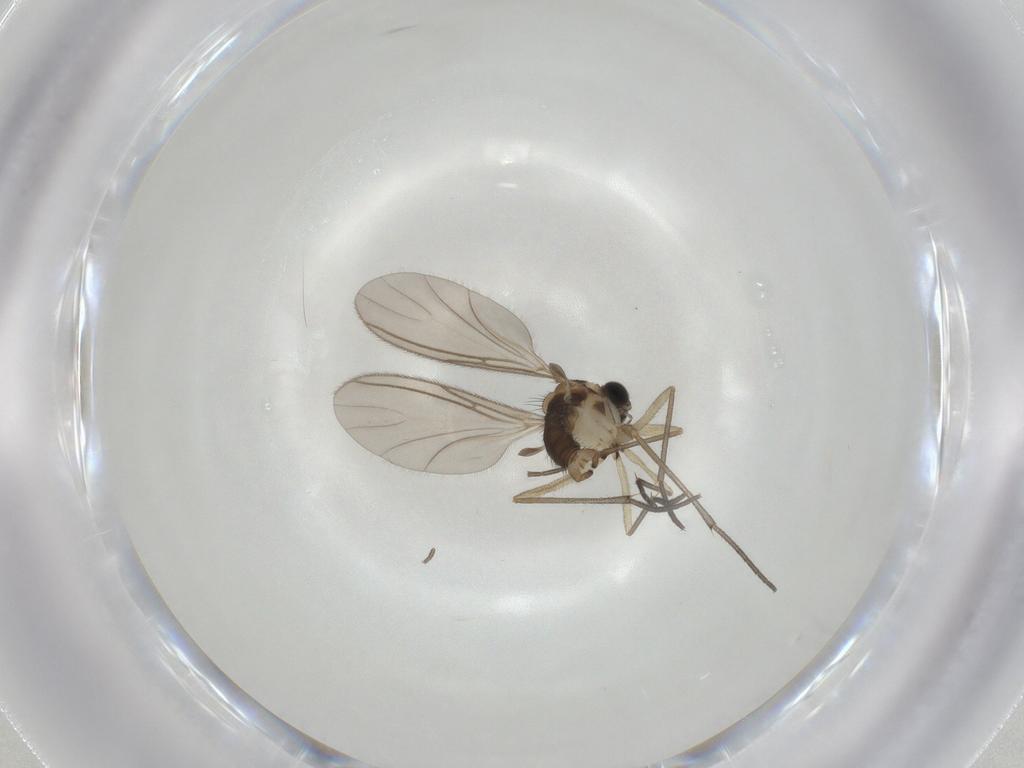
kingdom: Animalia
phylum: Arthropoda
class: Insecta
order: Diptera
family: Sciaridae
